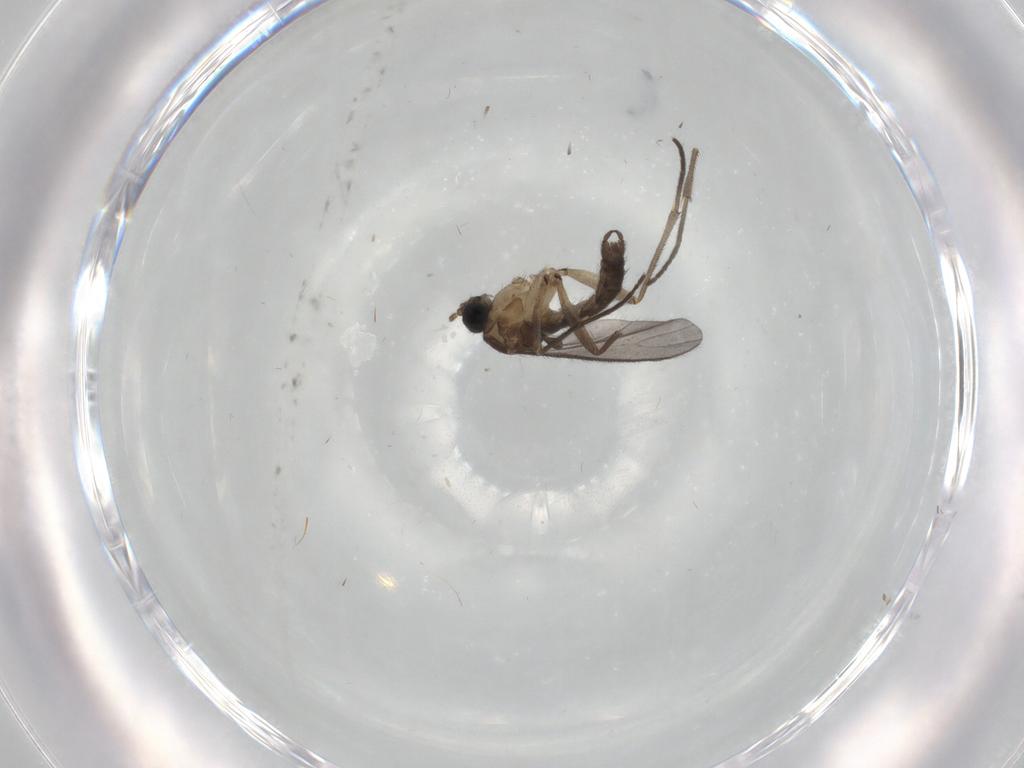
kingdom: Animalia
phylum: Arthropoda
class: Insecta
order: Diptera
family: Sciaridae
